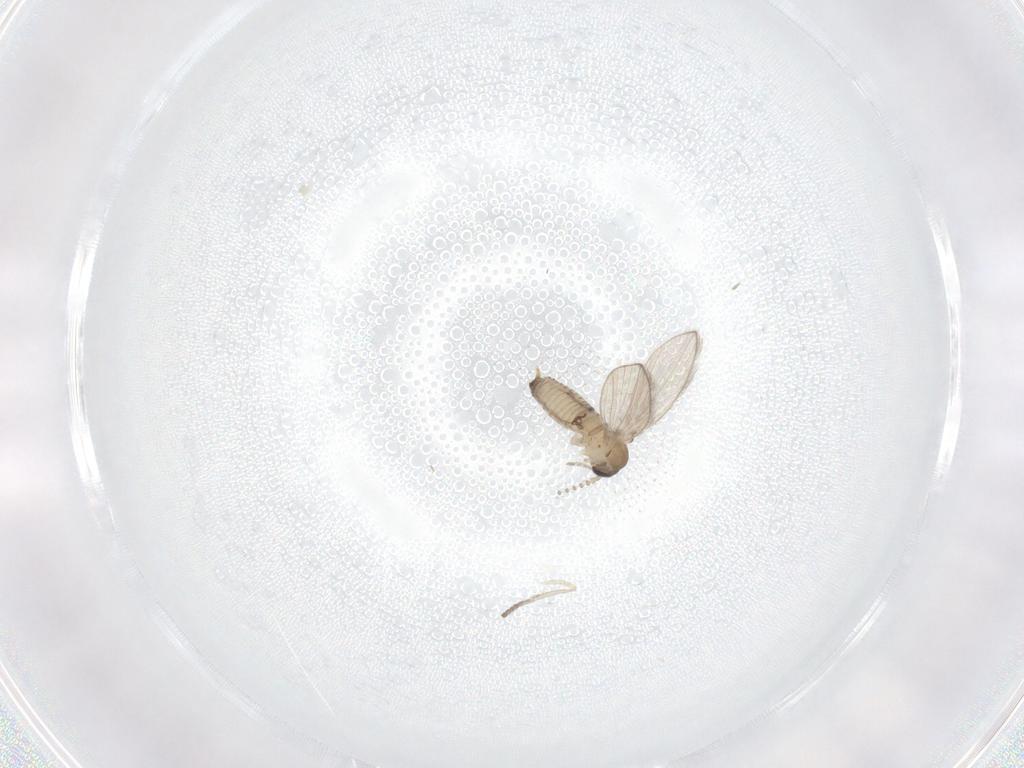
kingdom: Animalia
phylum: Arthropoda
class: Insecta
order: Diptera
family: Psychodidae
